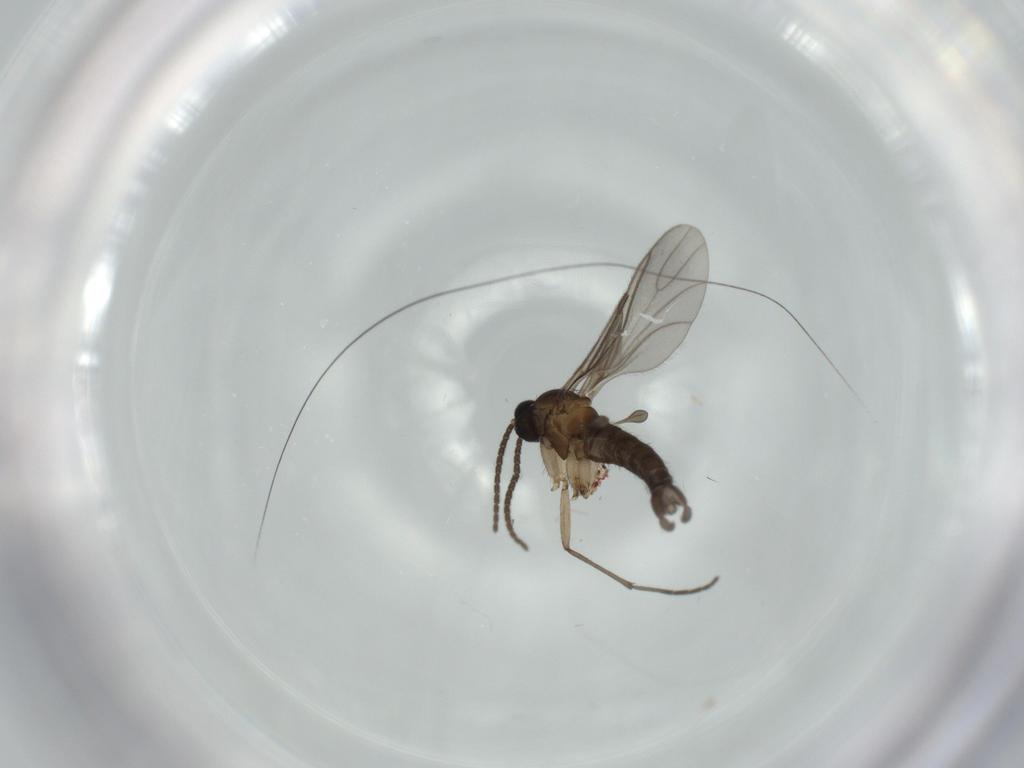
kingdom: Animalia
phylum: Arthropoda
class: Insecta
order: Diptera
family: Sciaridae
